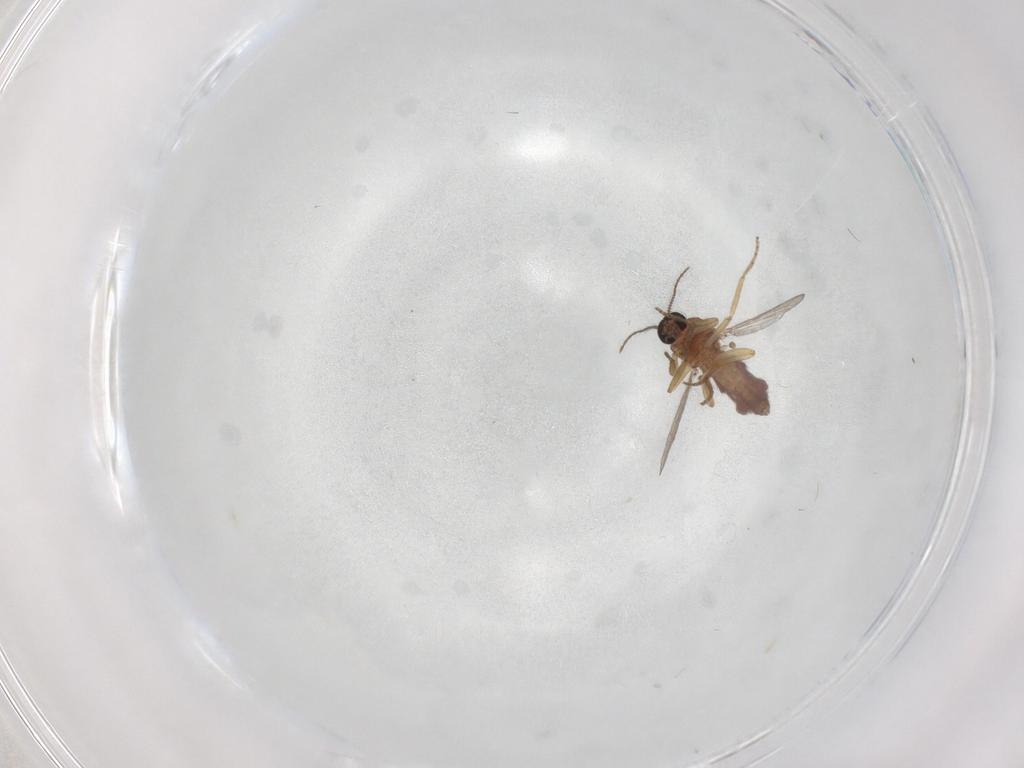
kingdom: Animalia
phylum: Arthropoda
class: Insecta
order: Diptera
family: Ceratopogonidae
